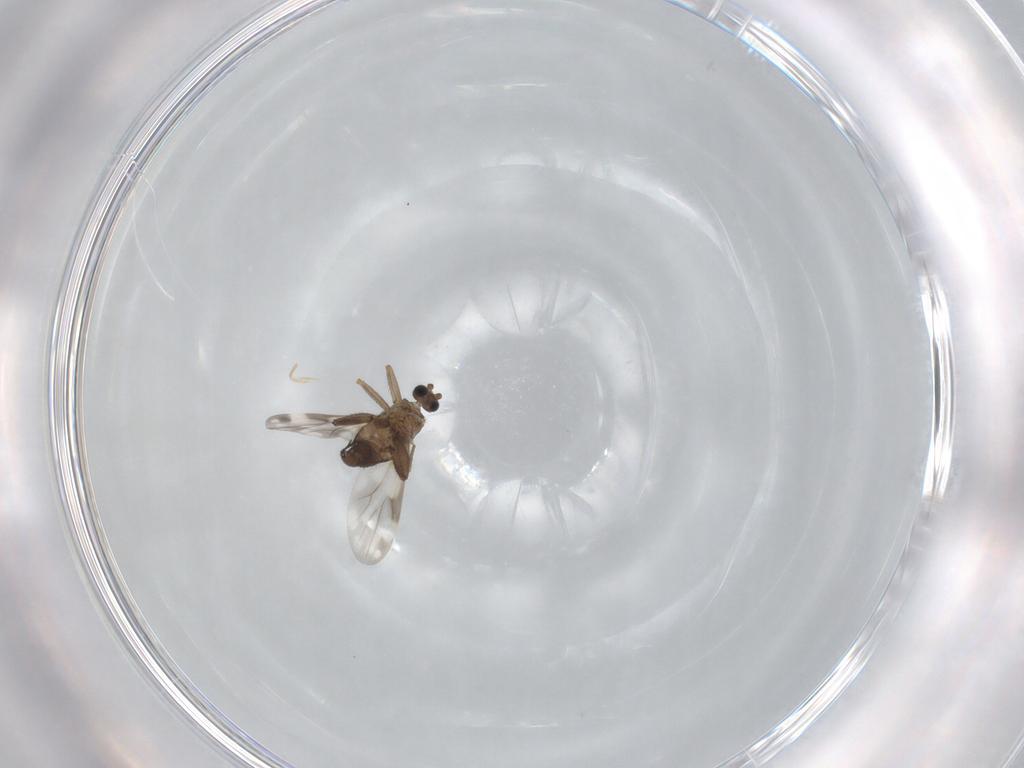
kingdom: Animalia
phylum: Arthropoda
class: Insecta
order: Diptera
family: Ceratopogonidae
